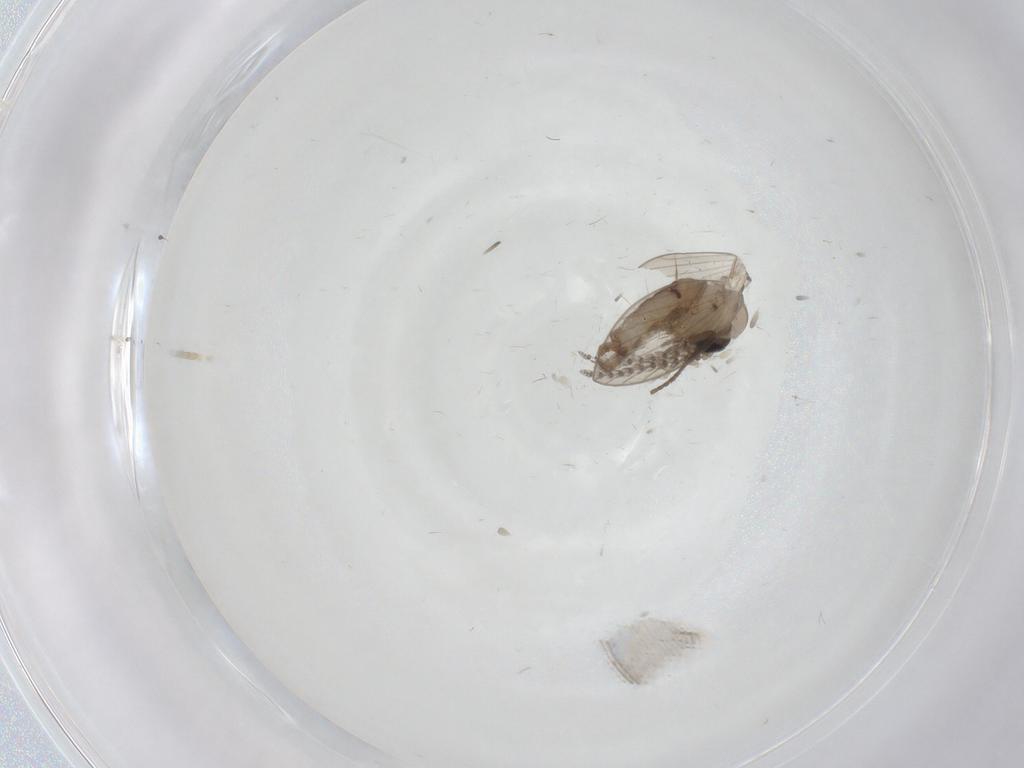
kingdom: Animalia
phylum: Arthropoda
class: Insecta
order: Diptera
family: Psychodidae
